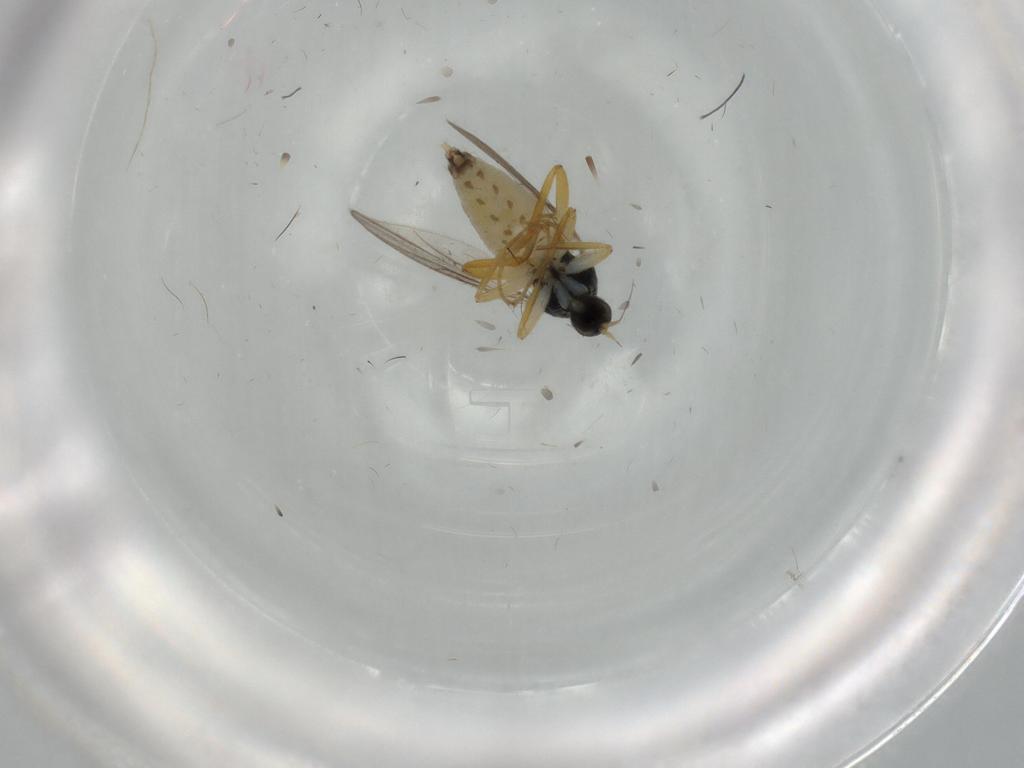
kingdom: Animalia
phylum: Arthropoda
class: Insecta
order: Diptera
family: Hybotidae
